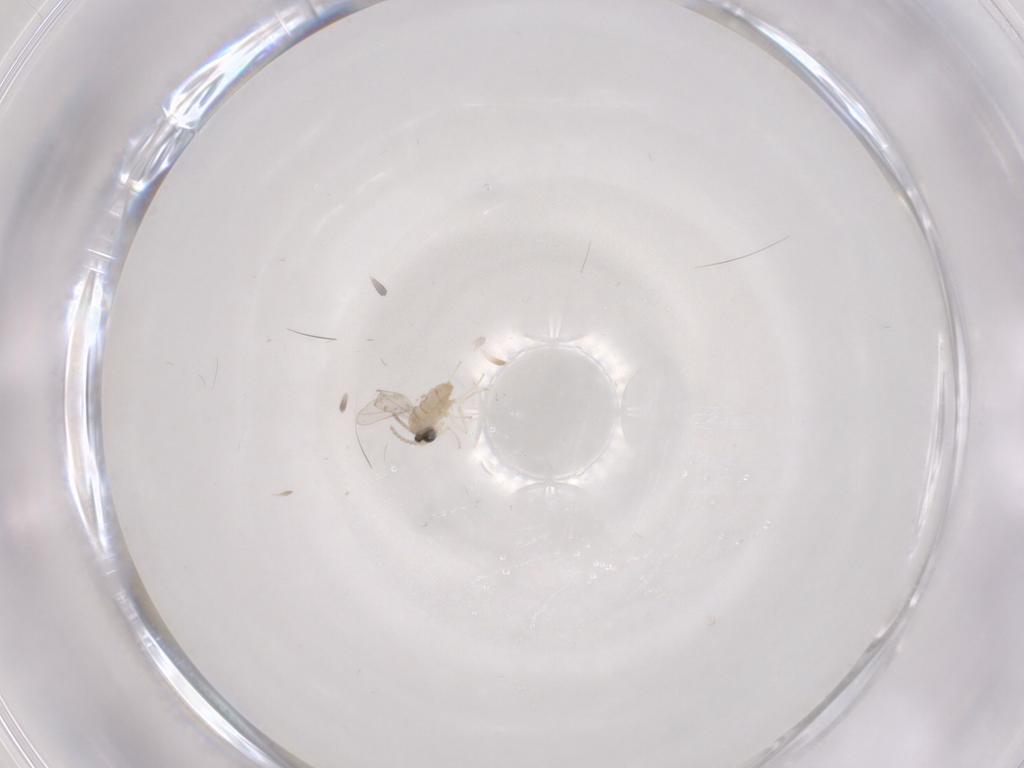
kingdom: Animalia
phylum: Arthropoda
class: Insecta
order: Diptera
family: Cecidomyiidae
